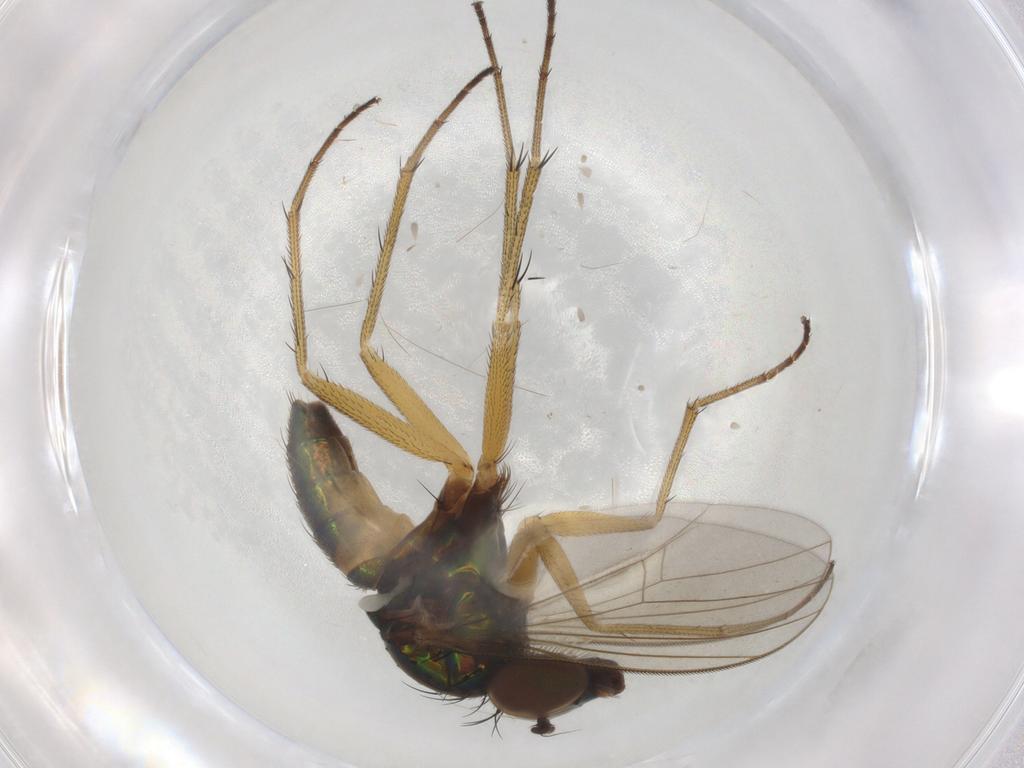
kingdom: Animalia
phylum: Arthropoda
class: Insecta
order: Diptera
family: Cecidomyiidae
